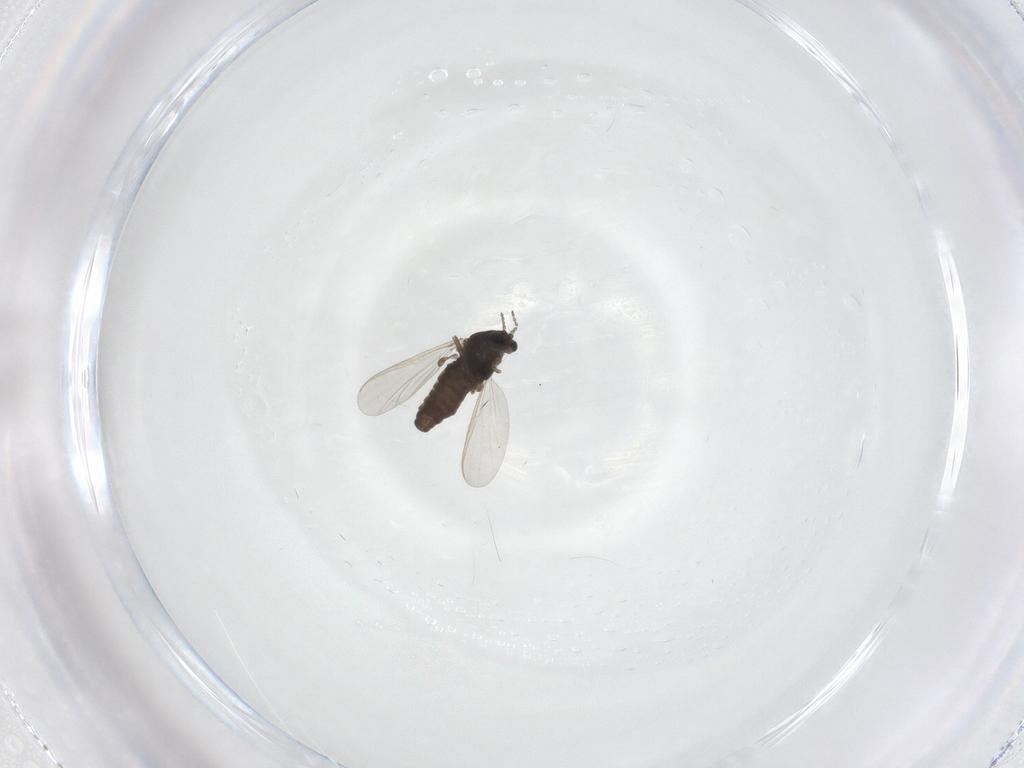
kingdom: Animalia
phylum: Arthropoda
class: Insecta
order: Diptera
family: Chironomidae
